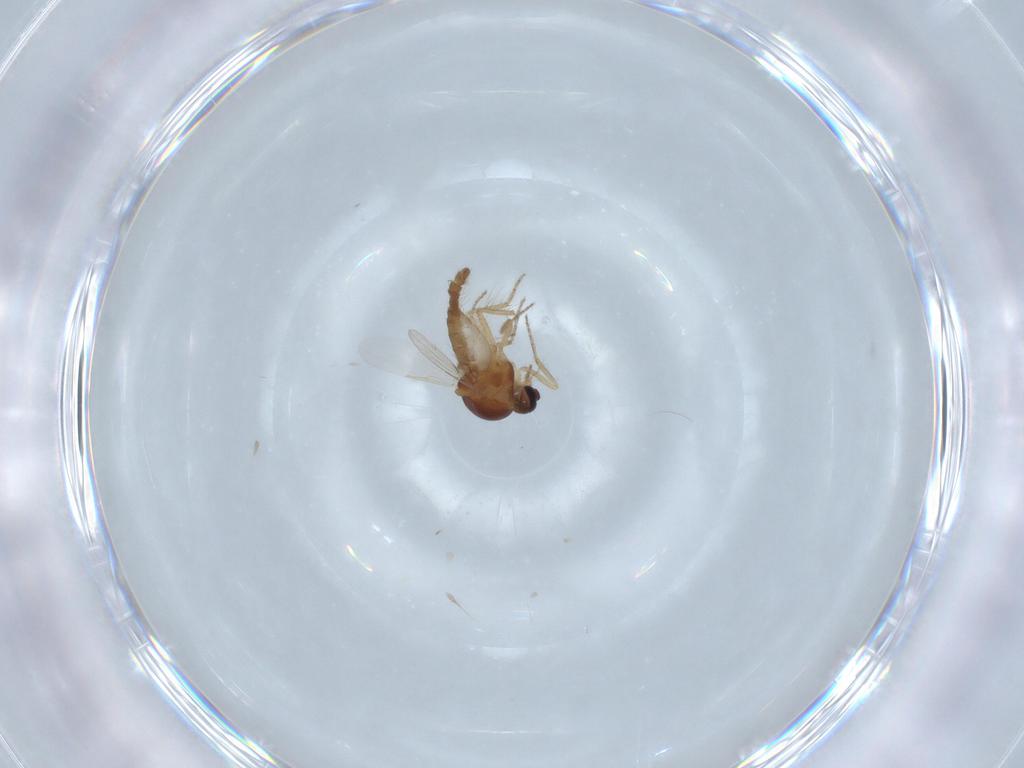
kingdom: Animalia
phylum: Arthropoda
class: Insecta
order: Diptera
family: Ceratopogonidae
